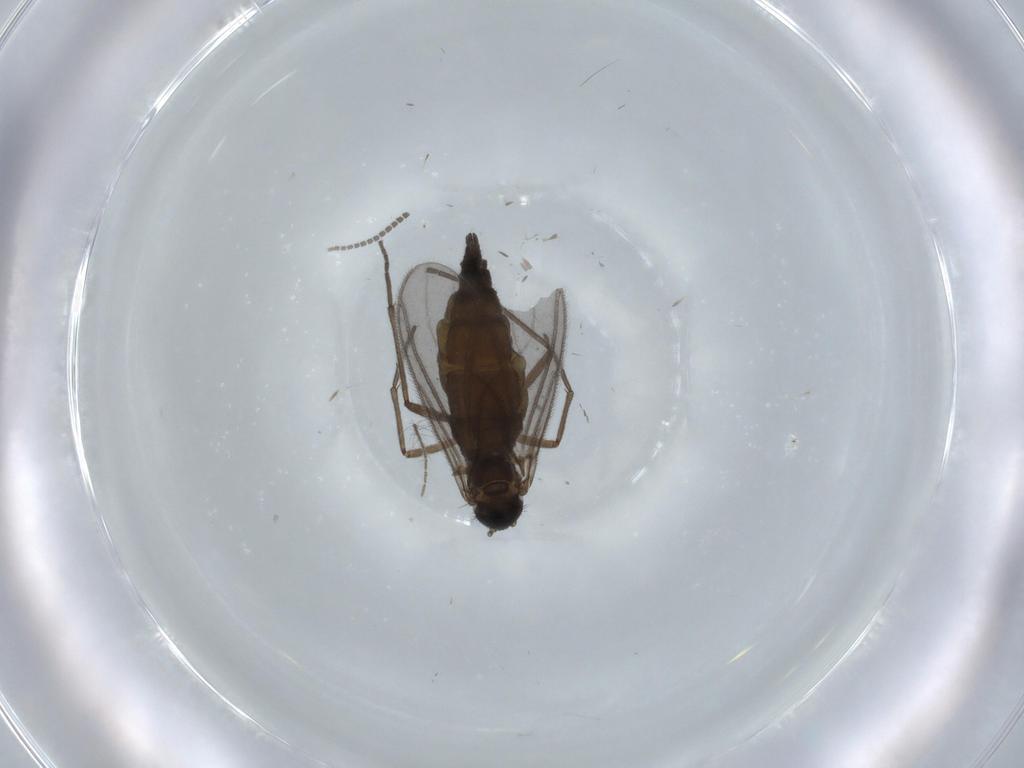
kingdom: Animalia
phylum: Arthropoda
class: Insecta
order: Diptera
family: Sciaridae
